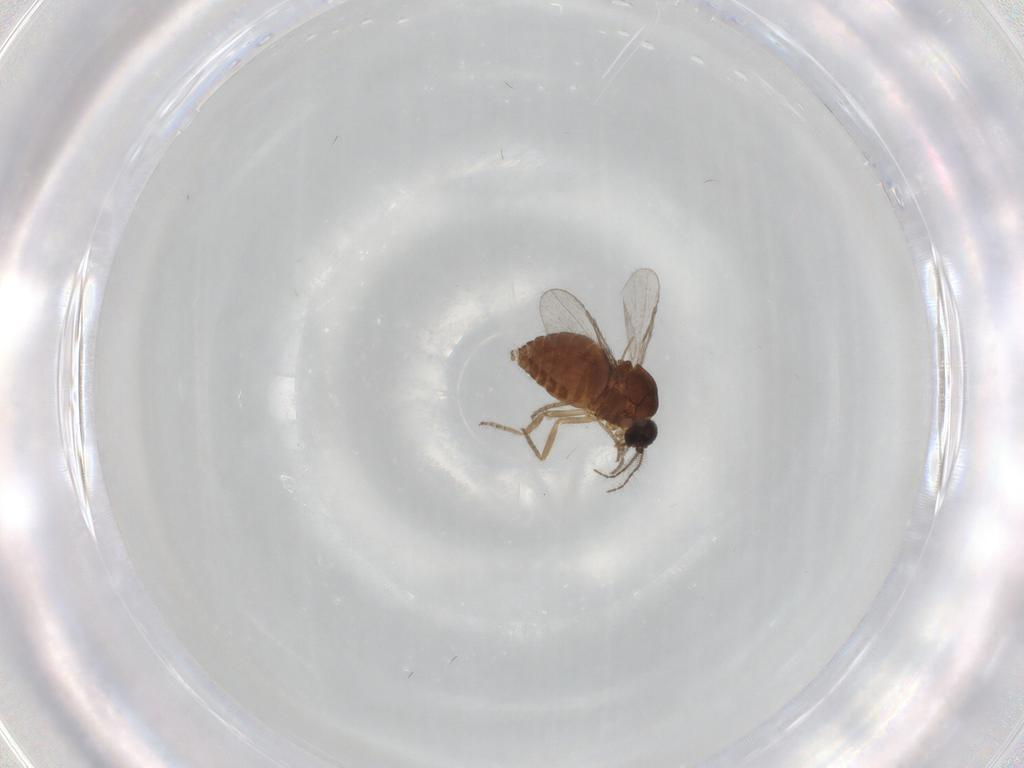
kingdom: Animalia
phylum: Arthropoda
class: Insecta
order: Diptera
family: Ceratopogonidae
